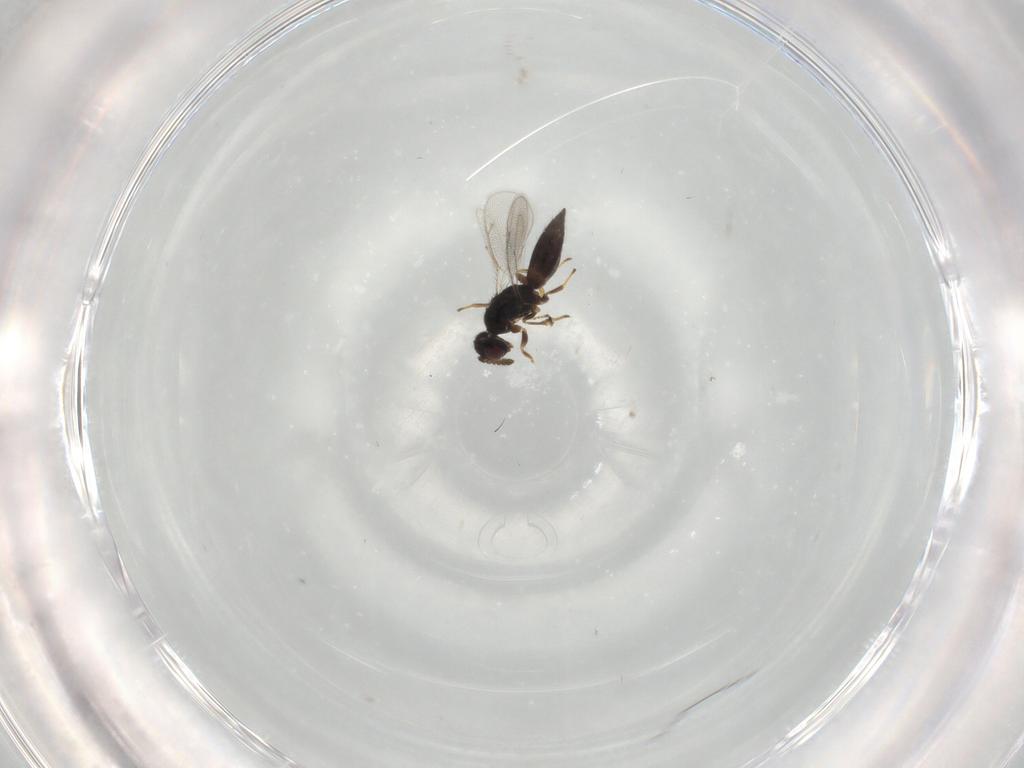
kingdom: Animalia
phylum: Arthropoda
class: Insecta
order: Hymenoptera
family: Eulophidae
